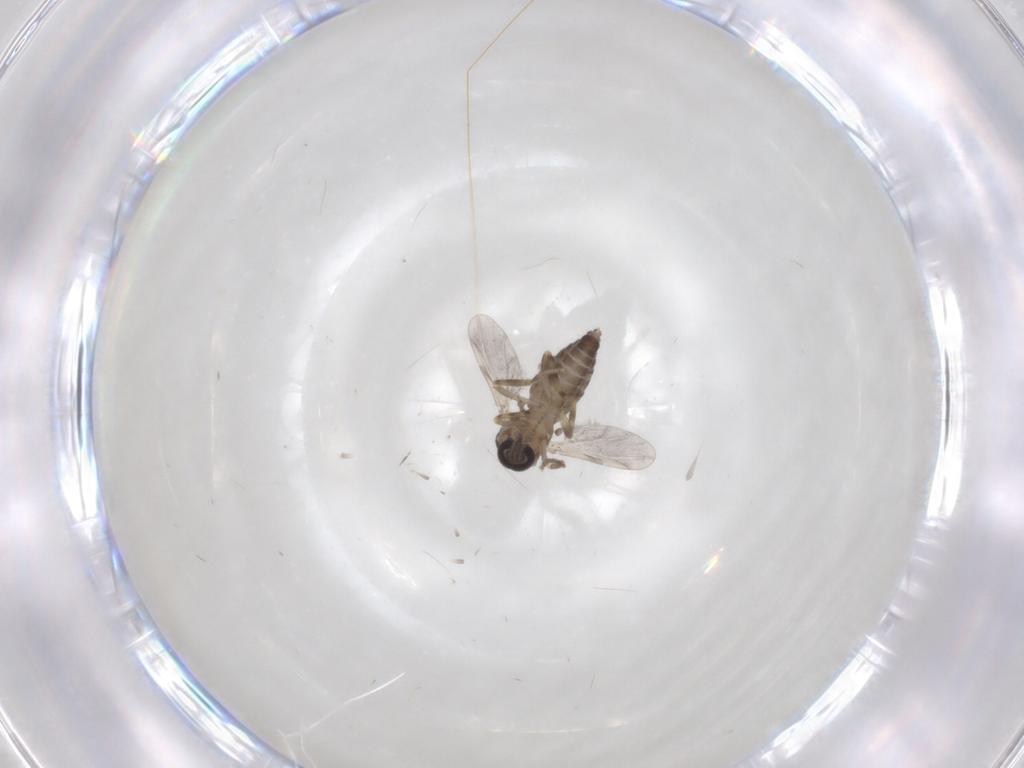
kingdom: Animalia
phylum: Arthropoda
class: Insecta
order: Diptera
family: Ceratopogonidae
